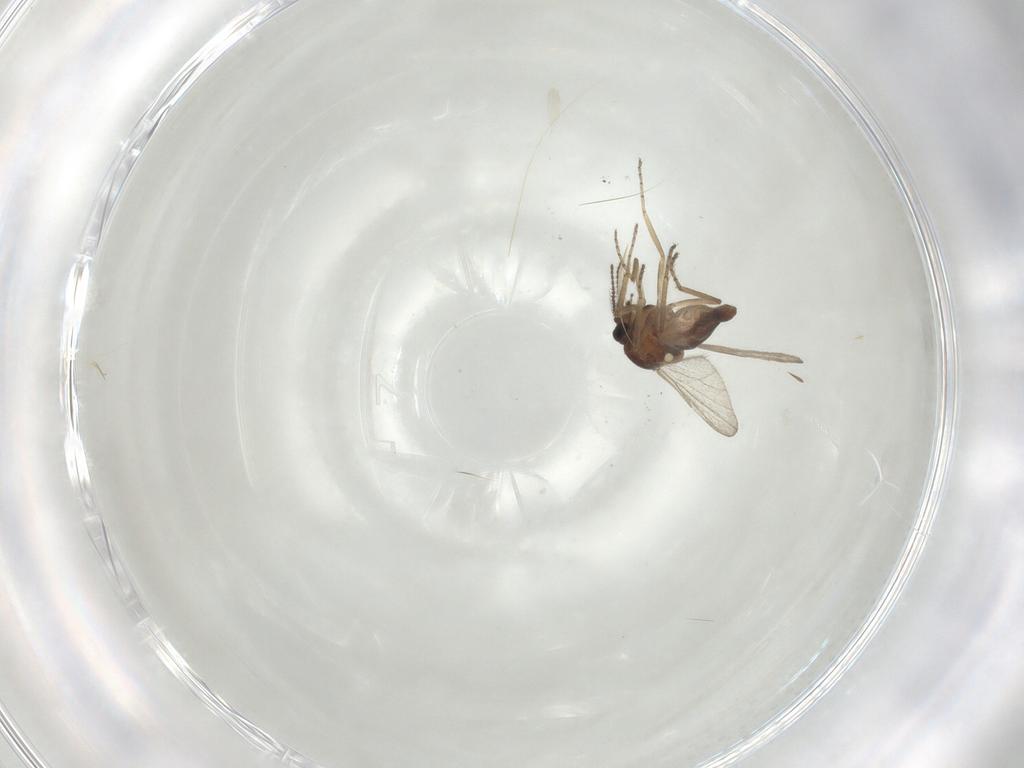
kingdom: Animalia
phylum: Arthropoda
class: Insecta
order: Diptera
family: Ceratopogonidae
